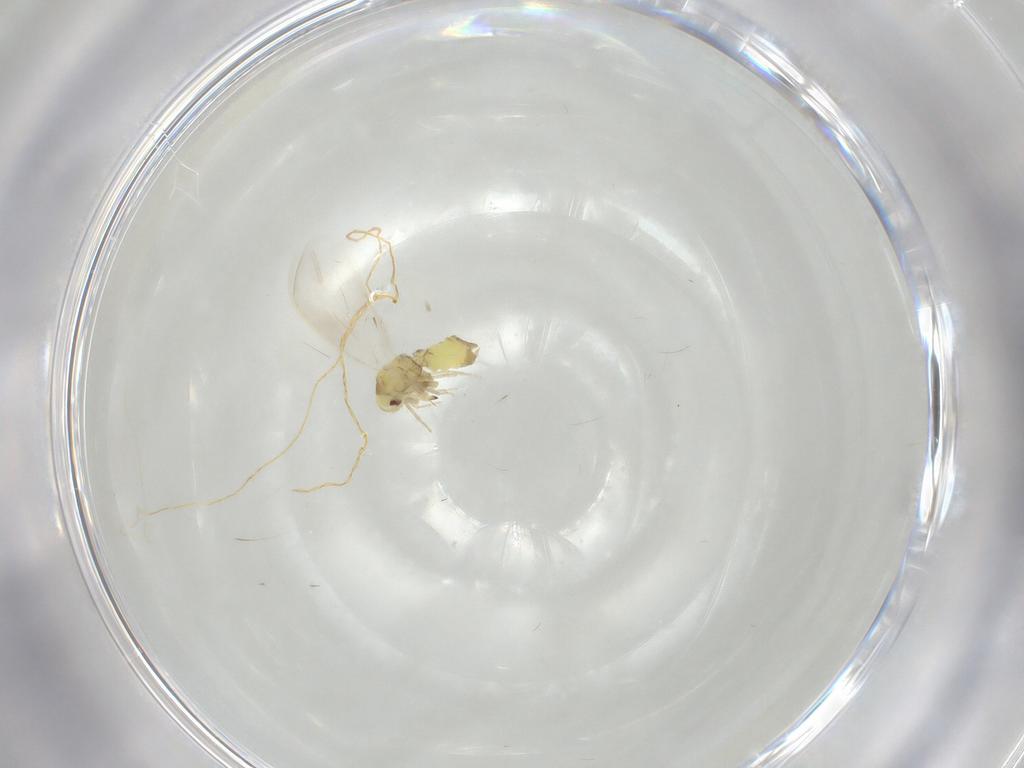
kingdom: Animalia
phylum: Arthropoda
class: Insecta
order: Hemiptera
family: Aleyrodidae
